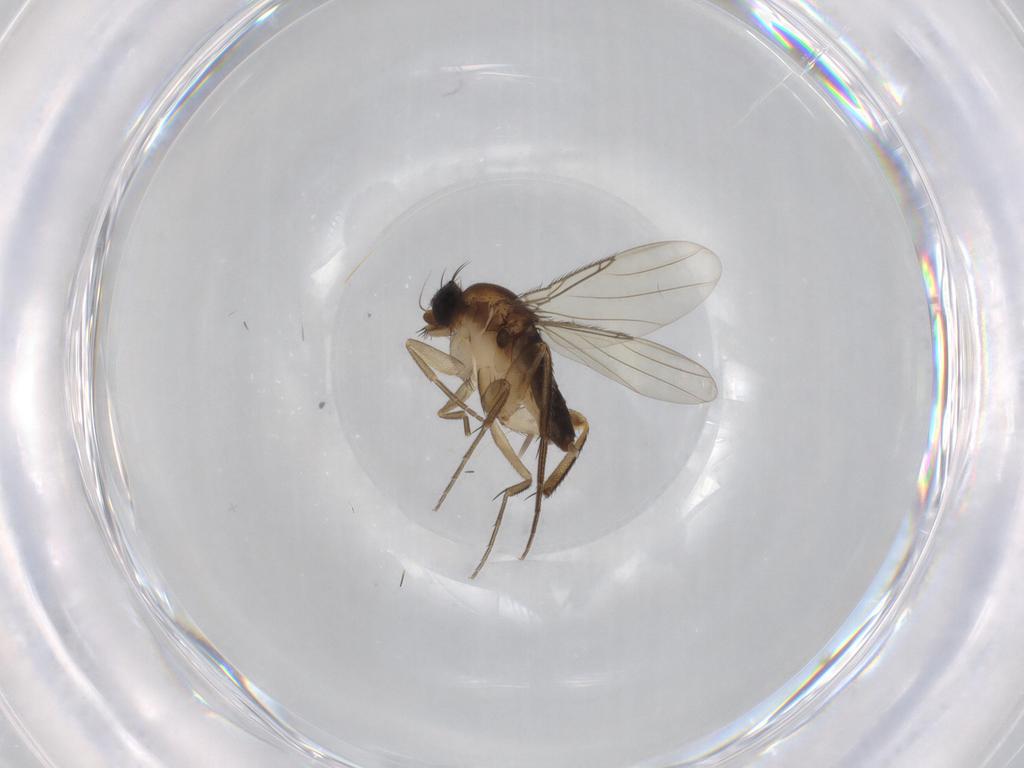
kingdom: Animalia
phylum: Arthropoda
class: Insecta
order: Diptera
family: Phoridae
